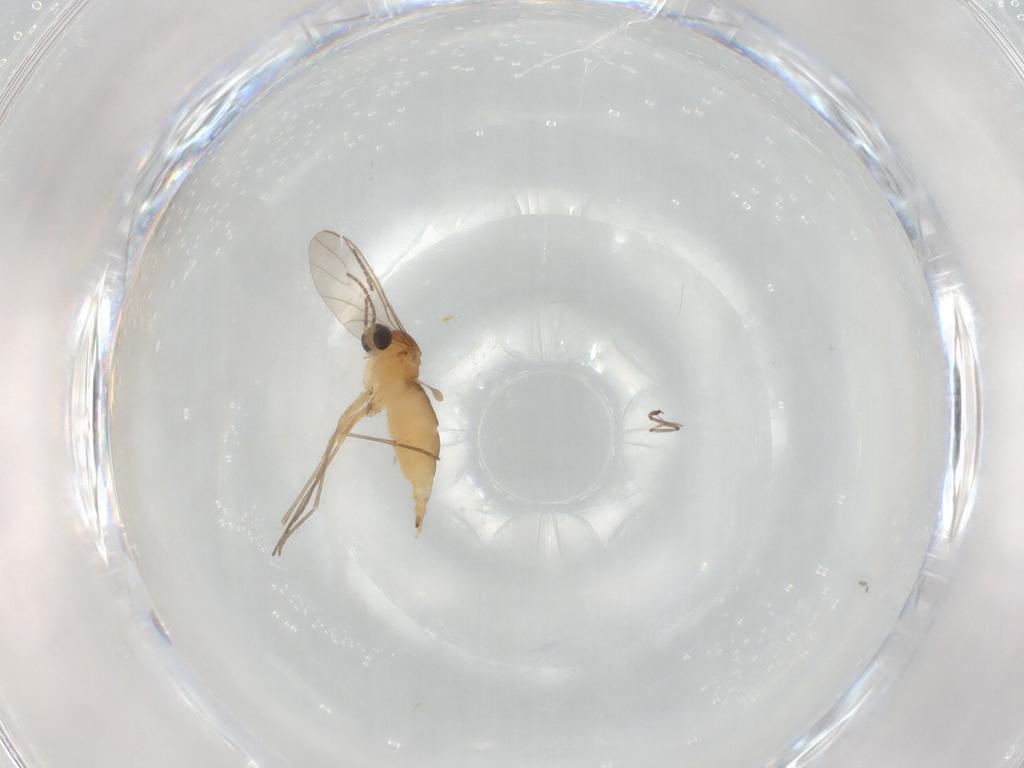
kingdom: Animalia
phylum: Arthropoda
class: Insecta
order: Diptera
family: Sciaridae
